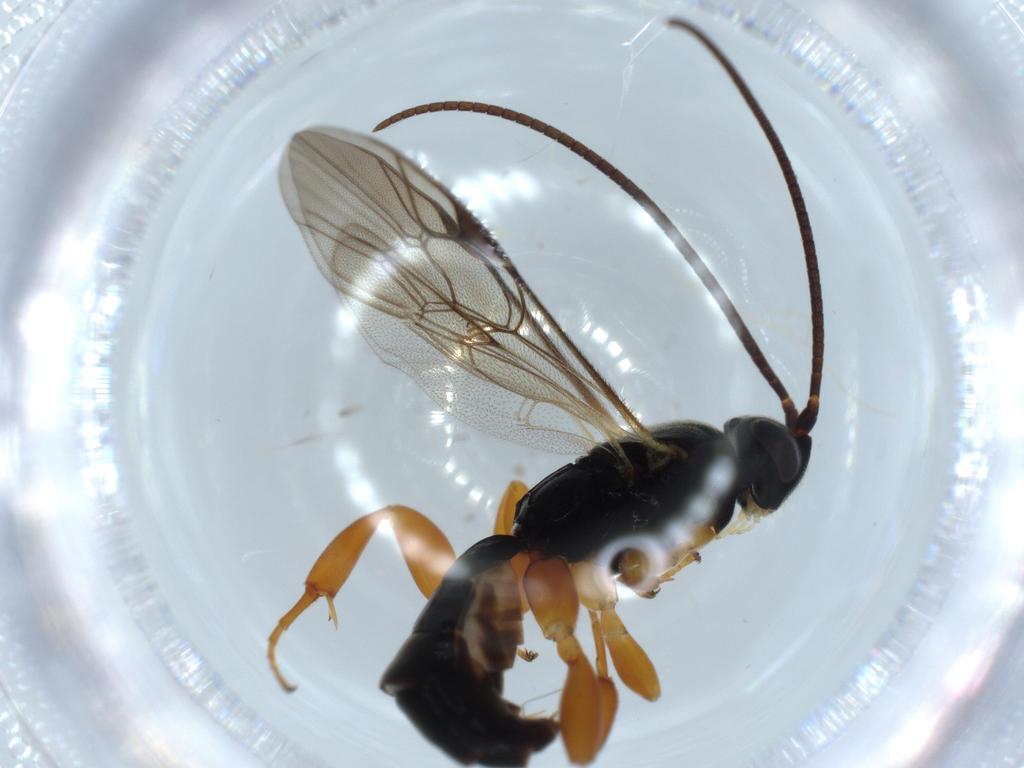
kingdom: Animalia
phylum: Arthropoda
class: Insecta
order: Hymenoptera
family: Ichneumonidae
